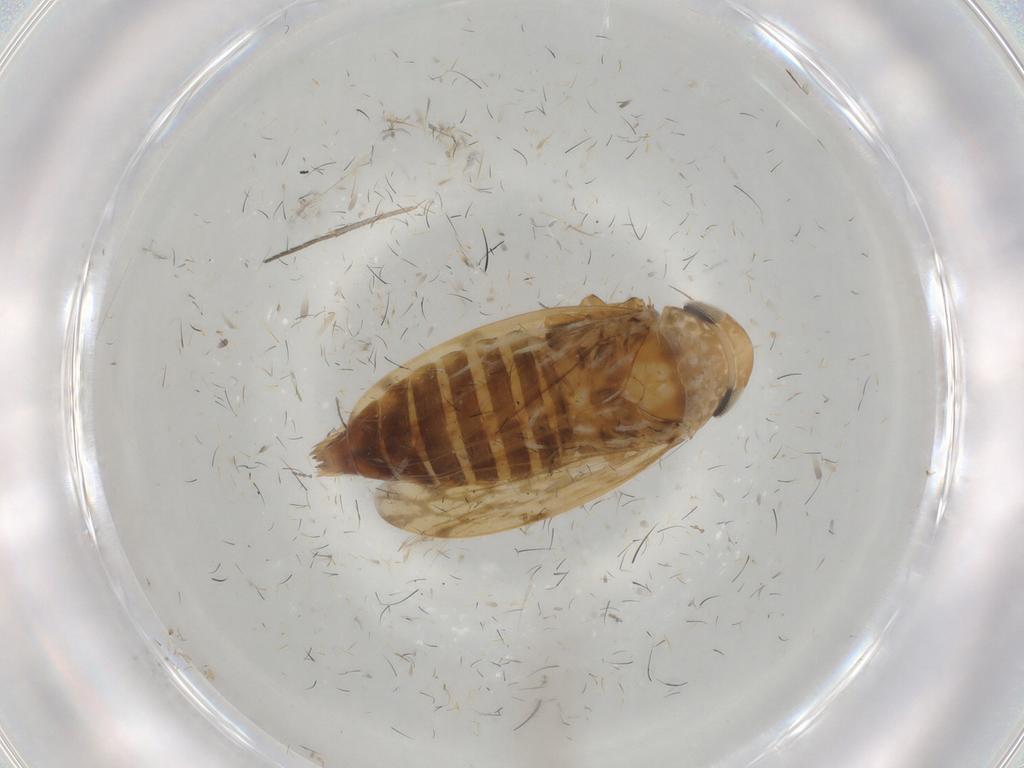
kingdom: Animalia
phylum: Arthropoda
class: Insecta
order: Hemiptera
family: Cicadellidae
